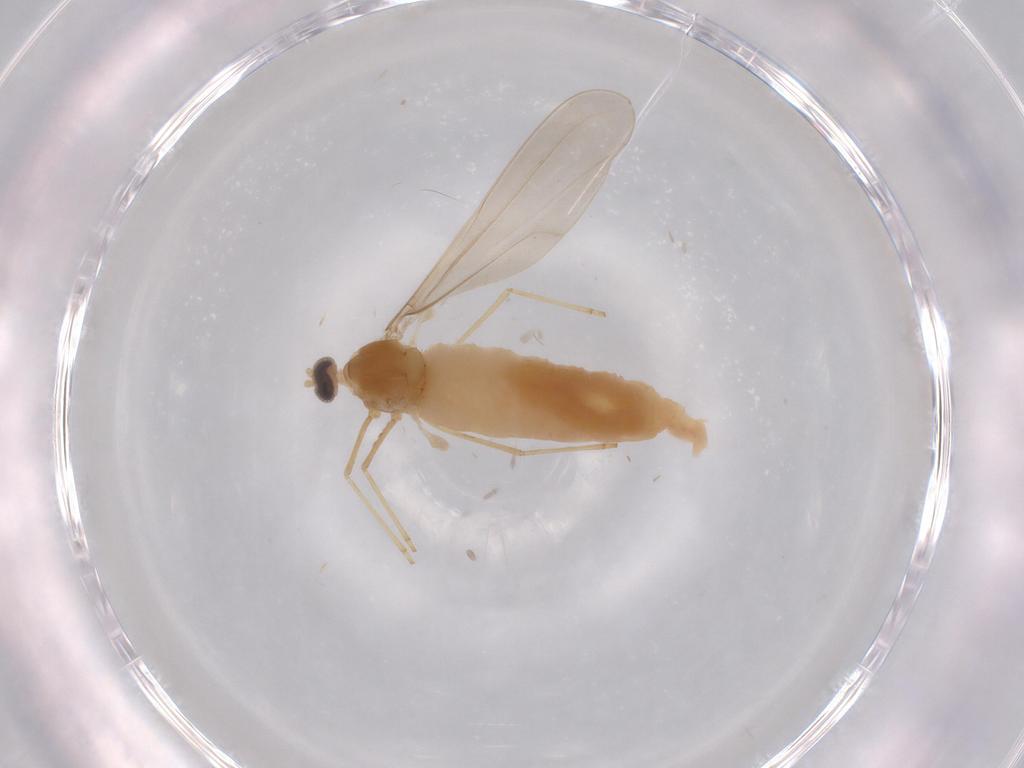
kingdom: Animalia
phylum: Arthropoda
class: Insecta
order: Diptera
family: Cecidomyiidae
